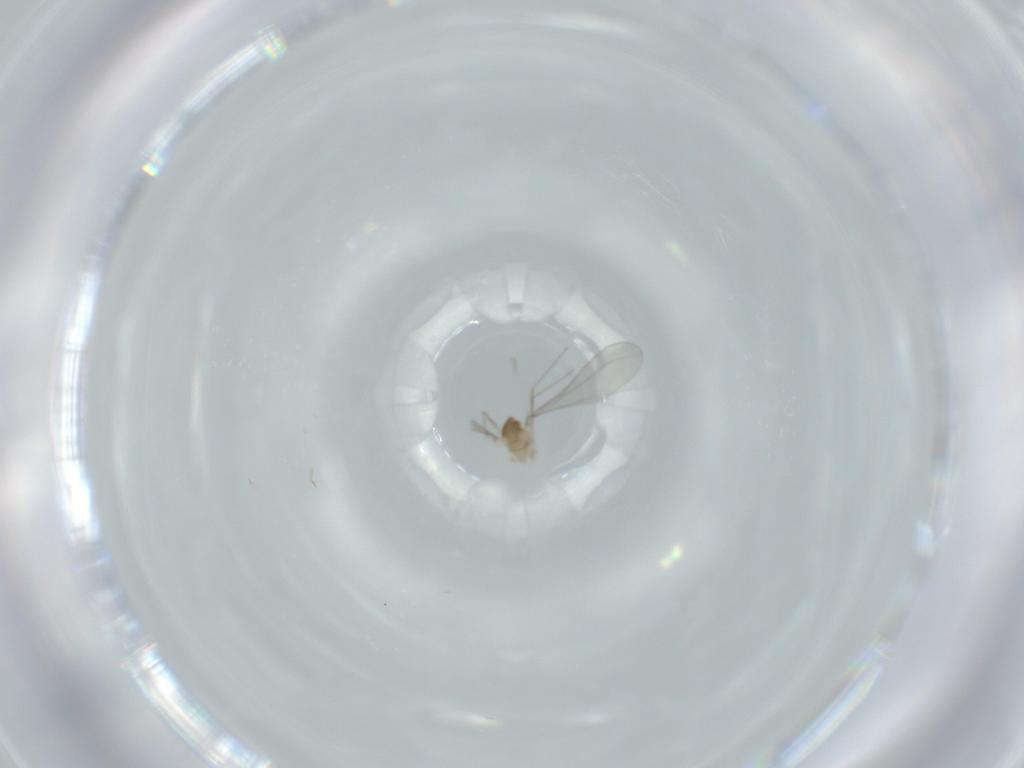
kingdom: Animalia
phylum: Arthropoda
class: Insecta
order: Diptera
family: Cecidomyiidae
